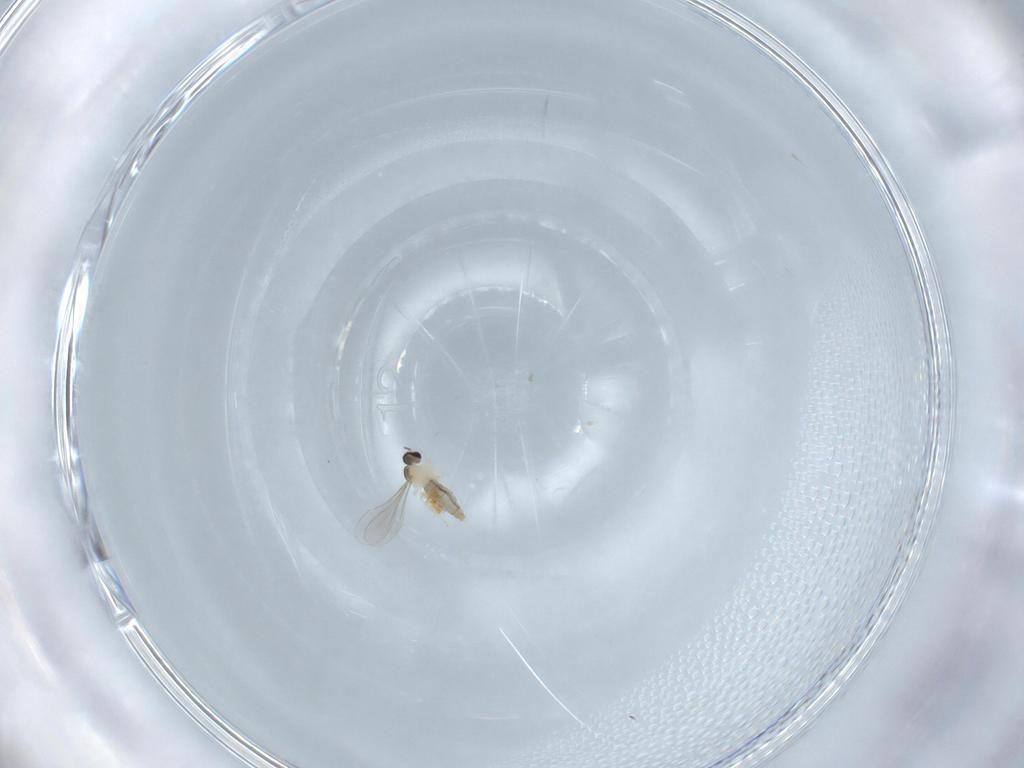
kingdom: Animalia
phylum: Arthropoda
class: Insecta
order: Diptera
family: Cecidomyiidae
